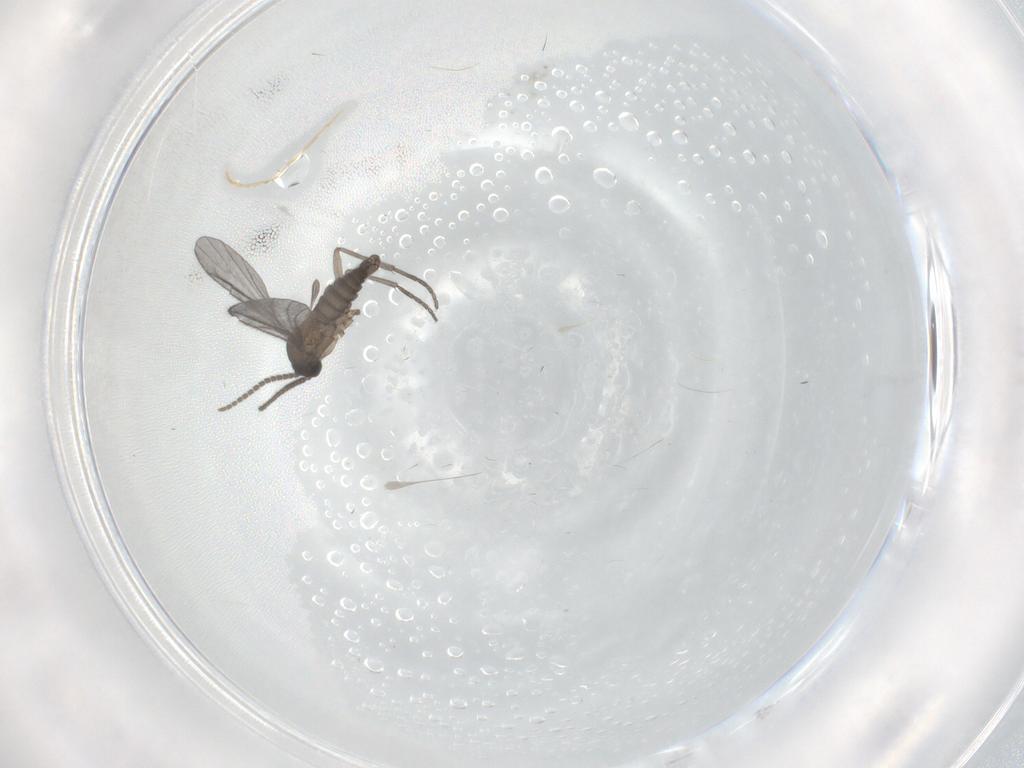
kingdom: Animalia
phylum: Arthropoda
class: Insecta
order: Diptera
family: Sciaridae
